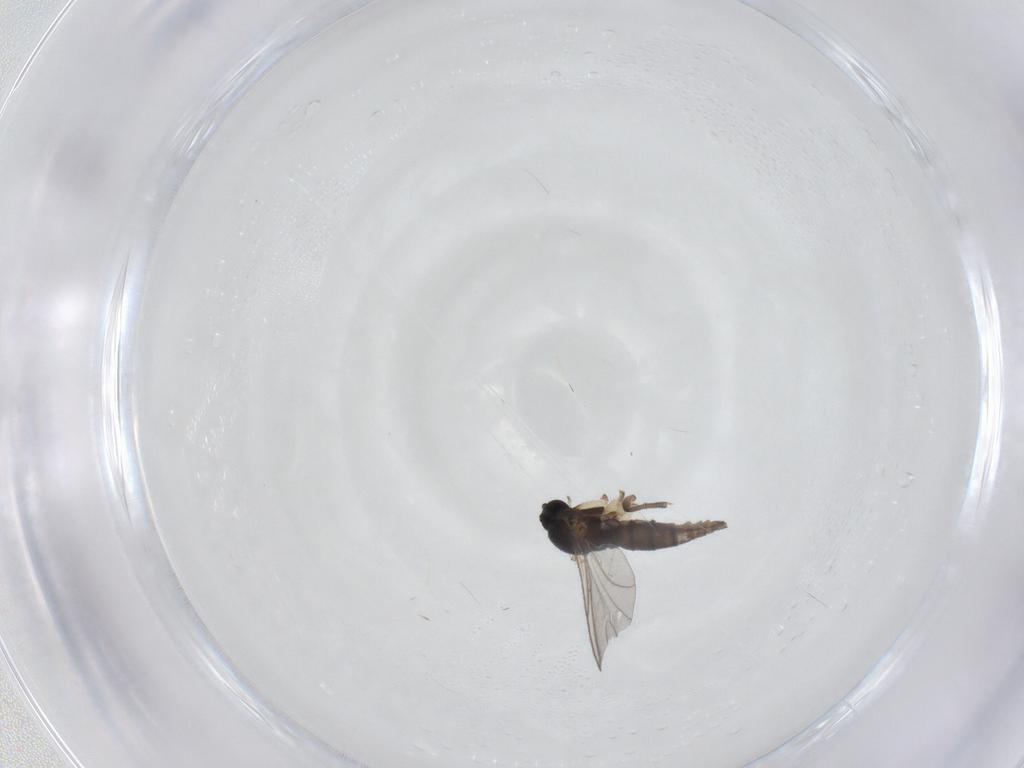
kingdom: Animalia
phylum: Arthropoda
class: Insecta
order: Diptera
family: Sciaridae
